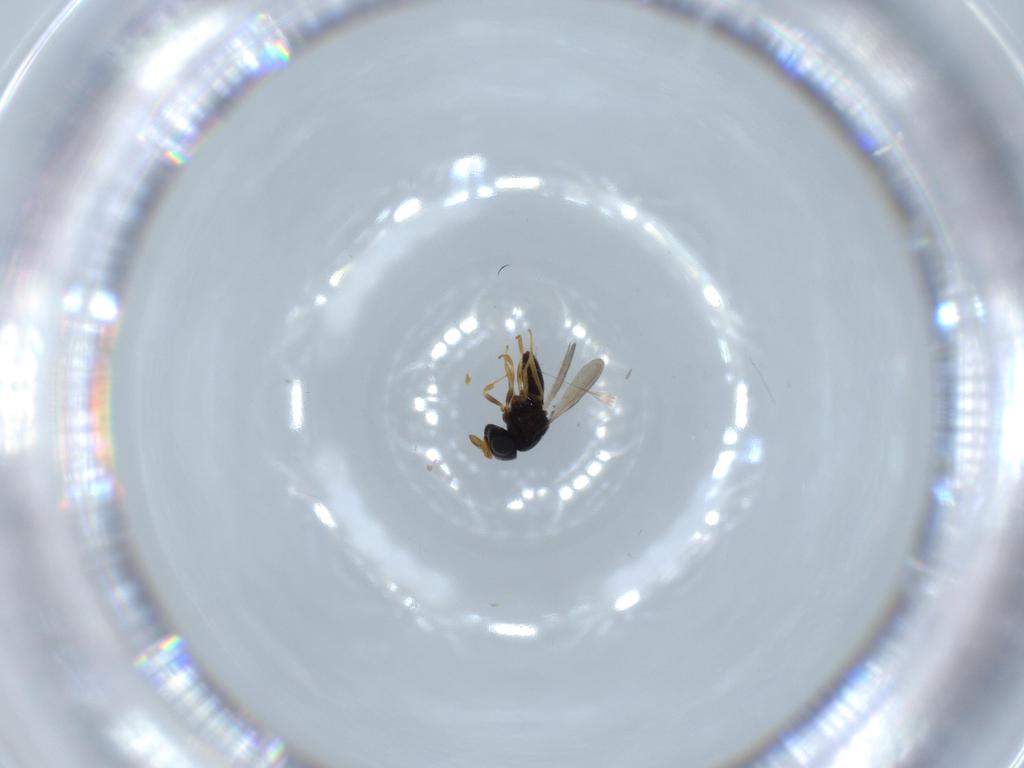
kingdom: Animalia
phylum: Arthropoda
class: Insecta
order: Hymenoptera
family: Scelionidae
